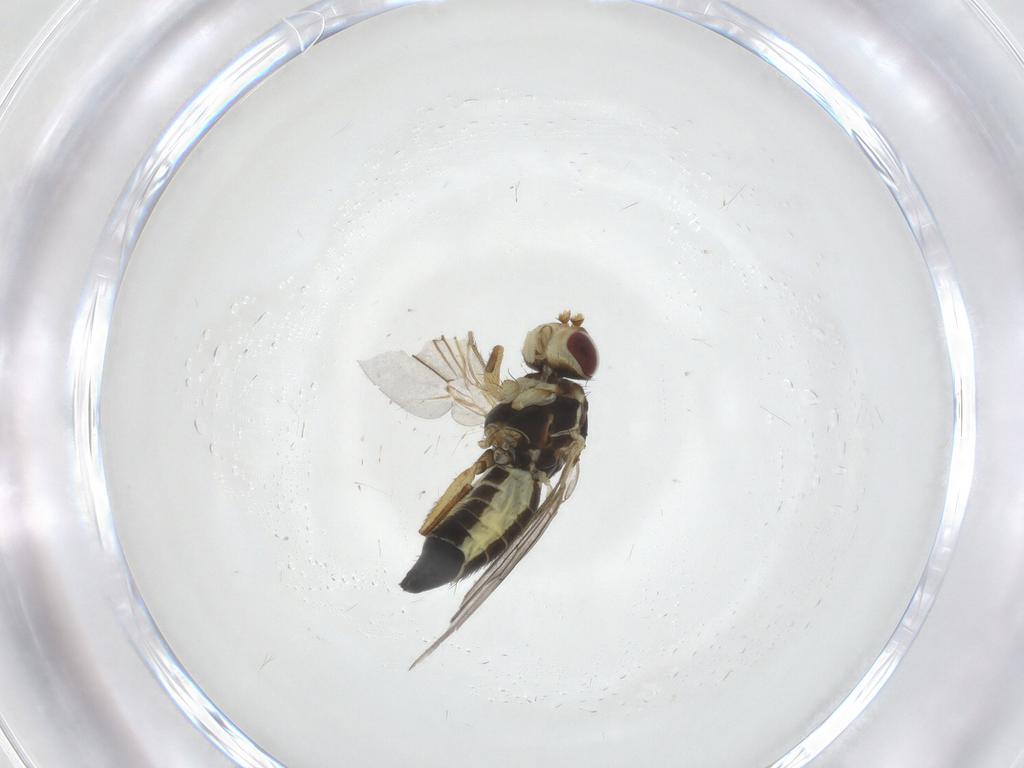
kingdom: Animalia
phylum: Arthropoda
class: Insecta
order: Diptera
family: Agromyzidae
